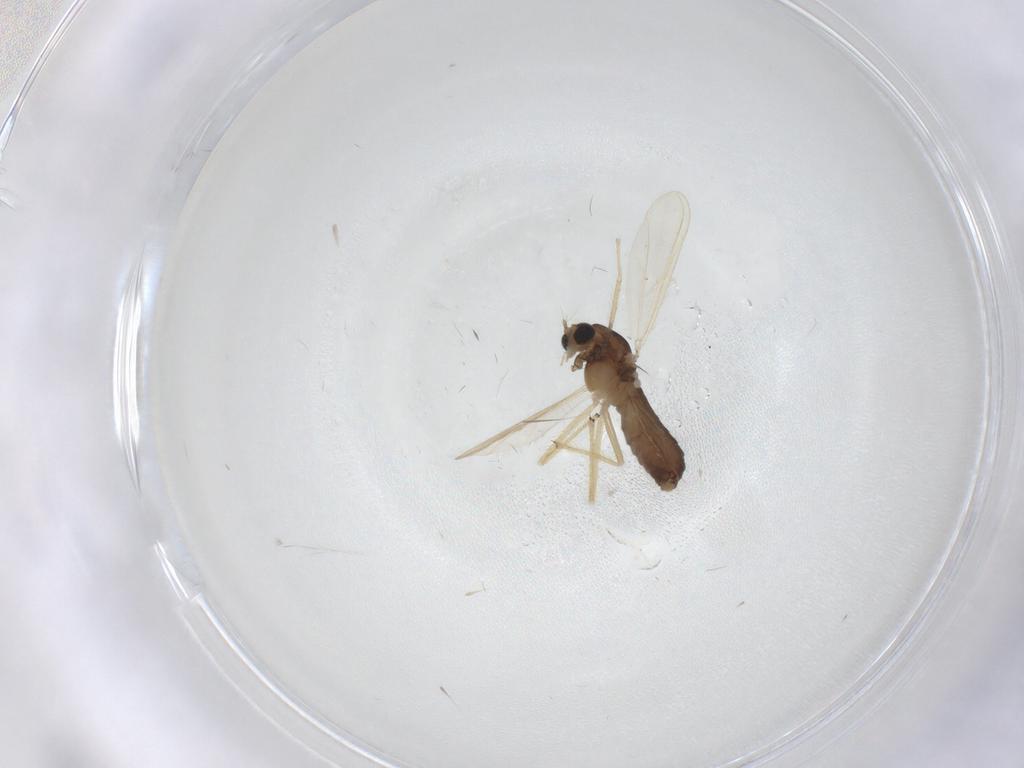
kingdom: Animalia
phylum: Arthropoda
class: Insecta
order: Diptera
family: Chironomidae
